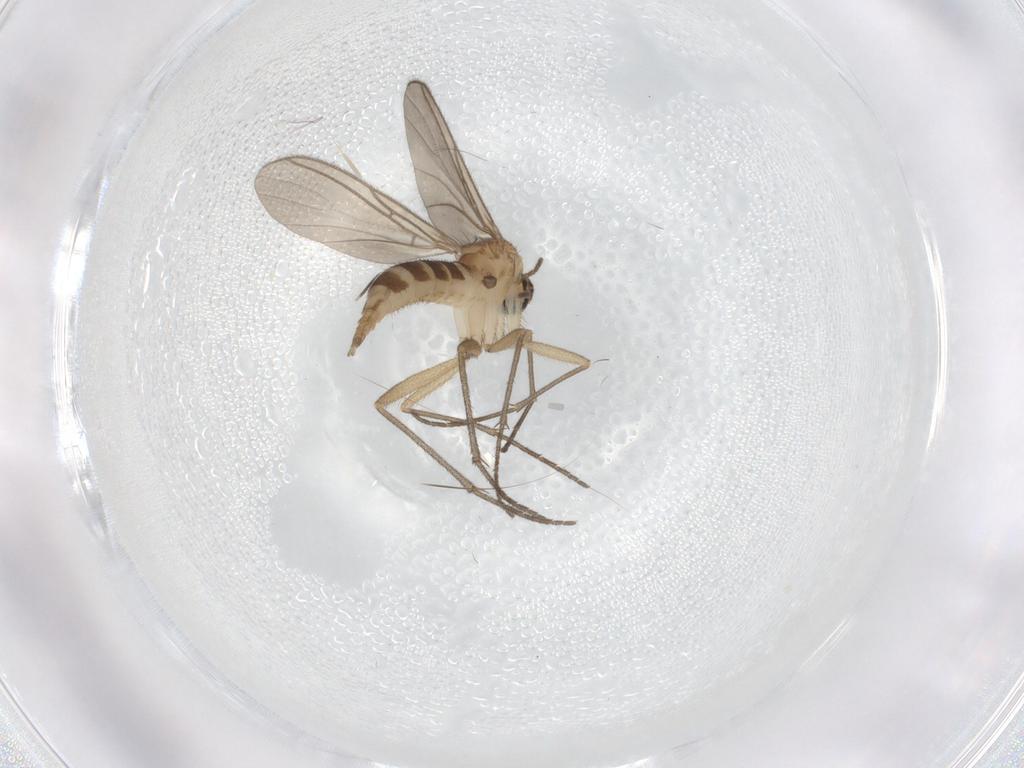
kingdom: Animalia
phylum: Arthropoda
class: Insecta
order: Diptera
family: Sciaridae
